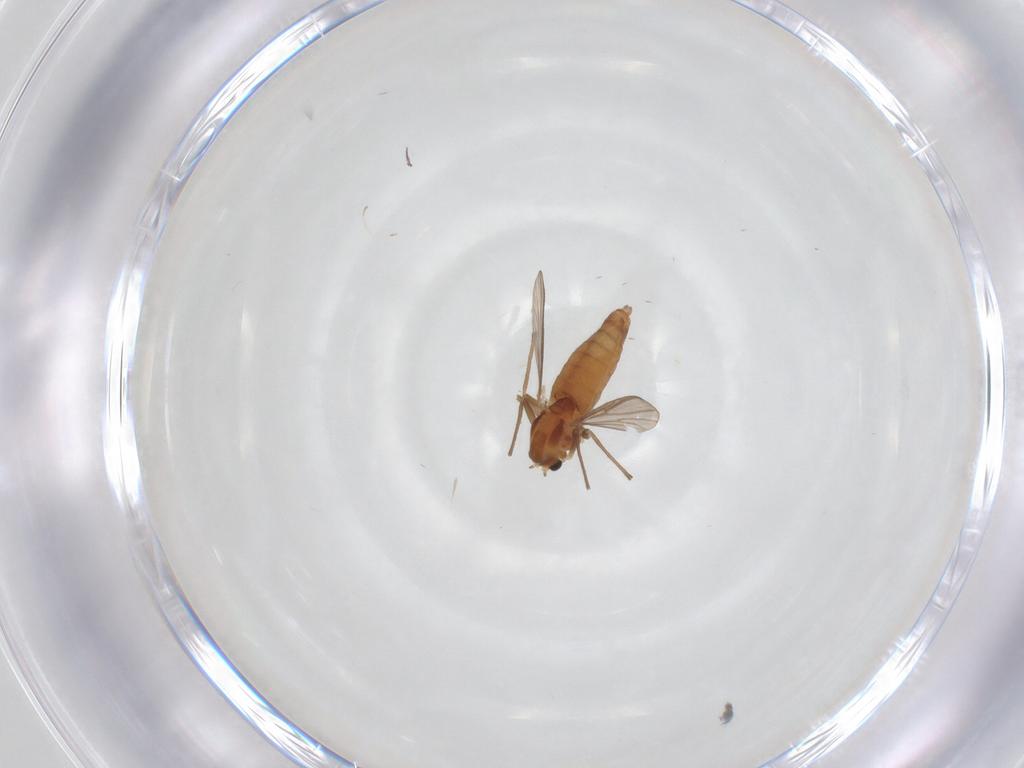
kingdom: Animalia
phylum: Arthropoda
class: Insecta
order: Diptera
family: Chironomidae
